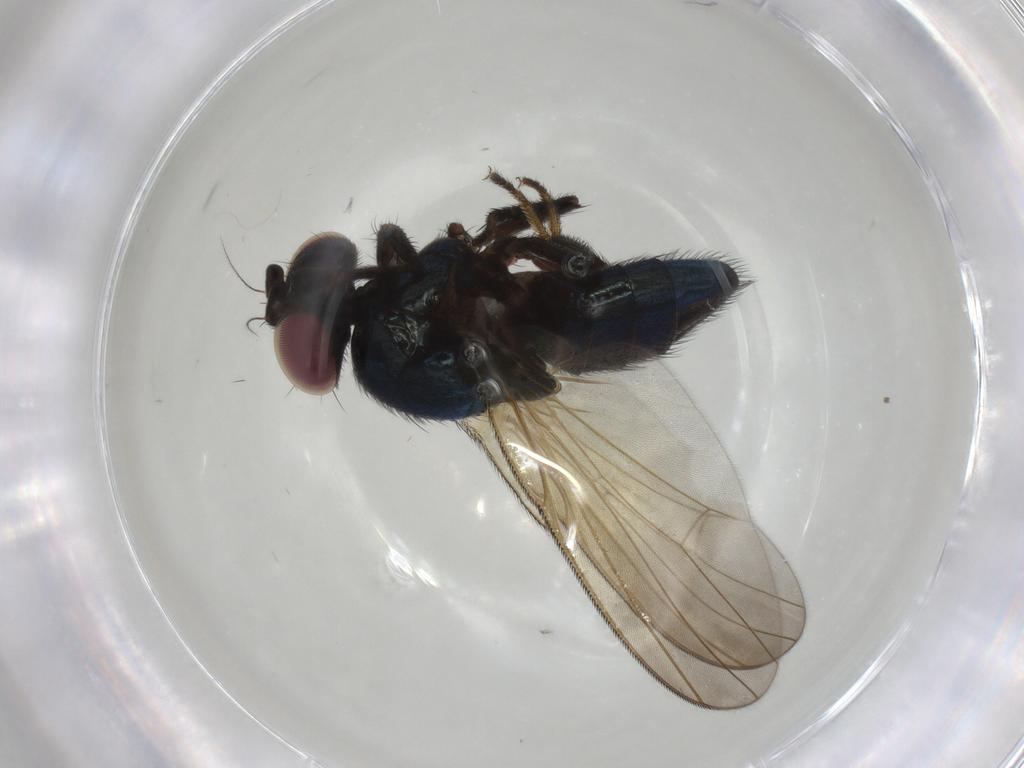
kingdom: Animalia
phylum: Arthropoda
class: Insecta
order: Diptera
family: Lonchaeidae
